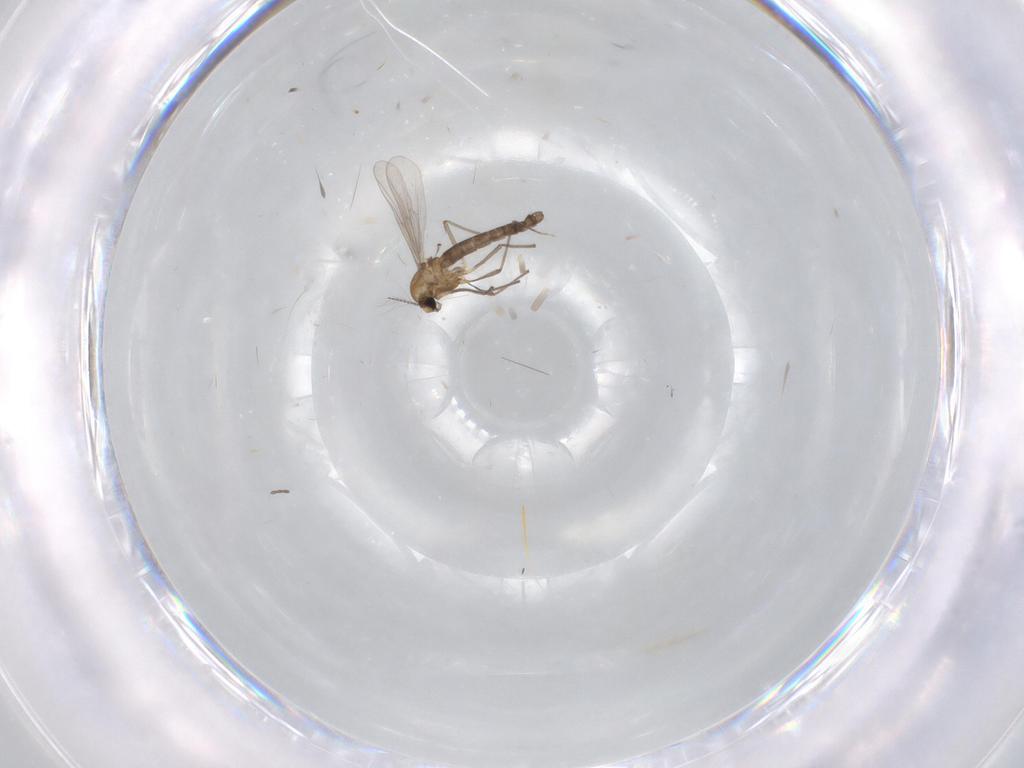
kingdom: Animalia
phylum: Arthropoda
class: Insecta
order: Diptera
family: Chironomidae
